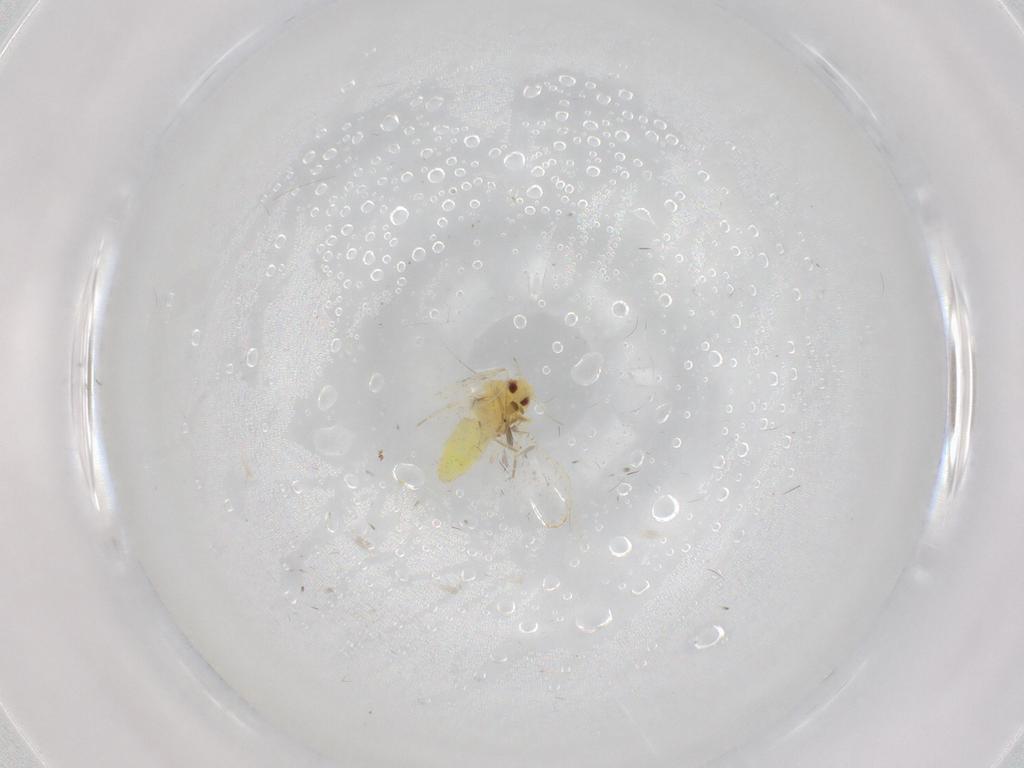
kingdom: Animalia
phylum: Arthropoda
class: Insecta
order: Hemiptera
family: Aleyrodidae
